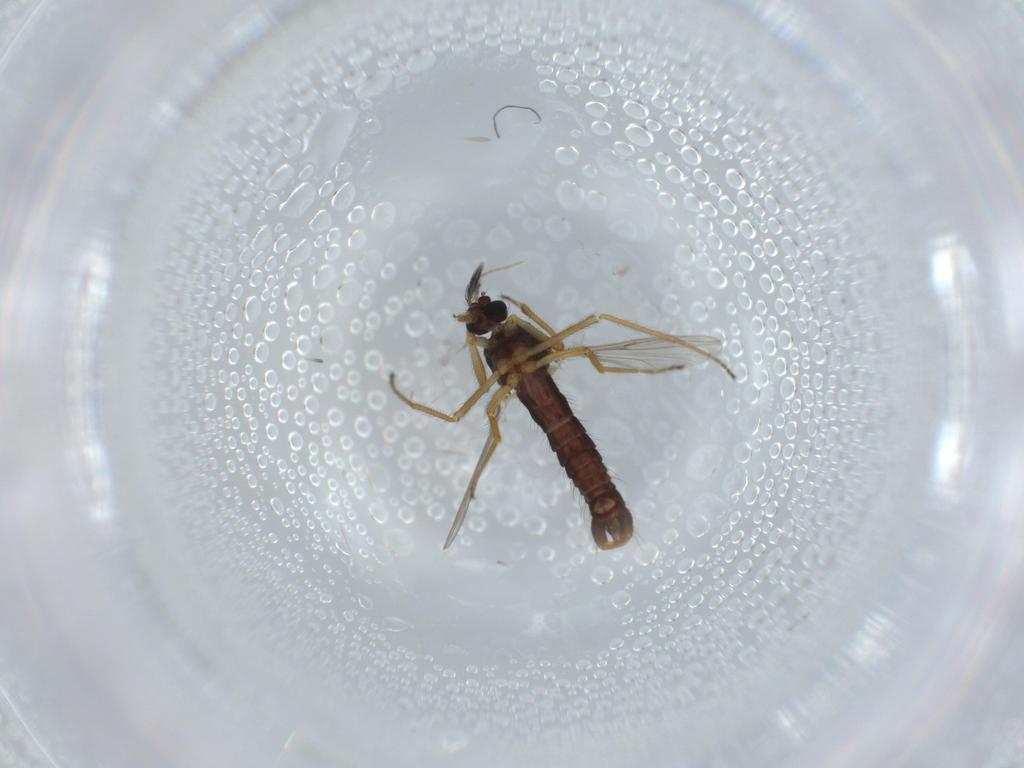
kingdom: Animalia
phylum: Arthropoda
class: Insecta
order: Diptera
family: Ceratopogonidae
